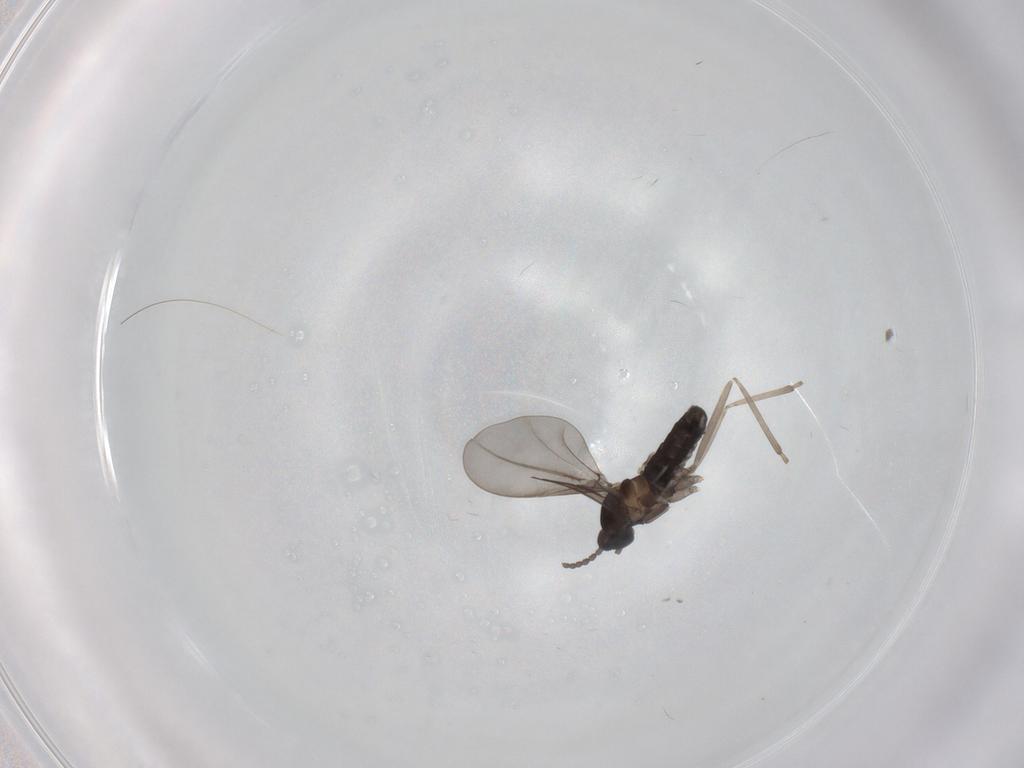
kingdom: Animalia
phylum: Arthropoda
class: Insecta
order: Diptera
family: Cecidomyiidae
